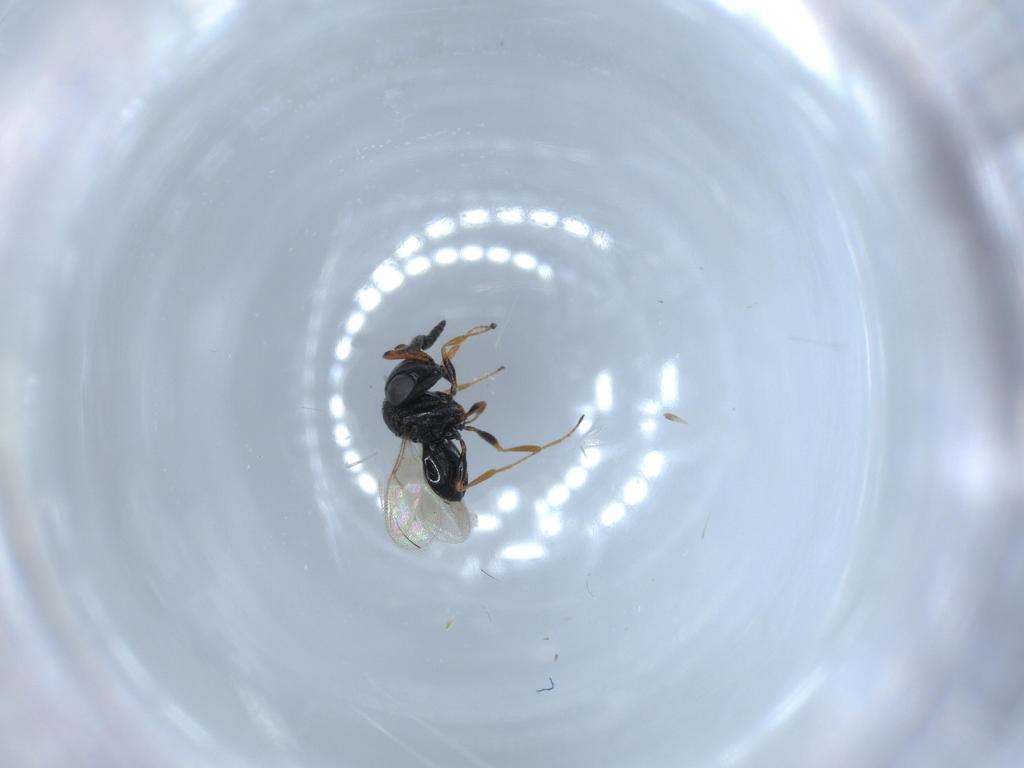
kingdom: Animalia
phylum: Arthropoda
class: Insecta
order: Hymenoptera
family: Scelionidae
